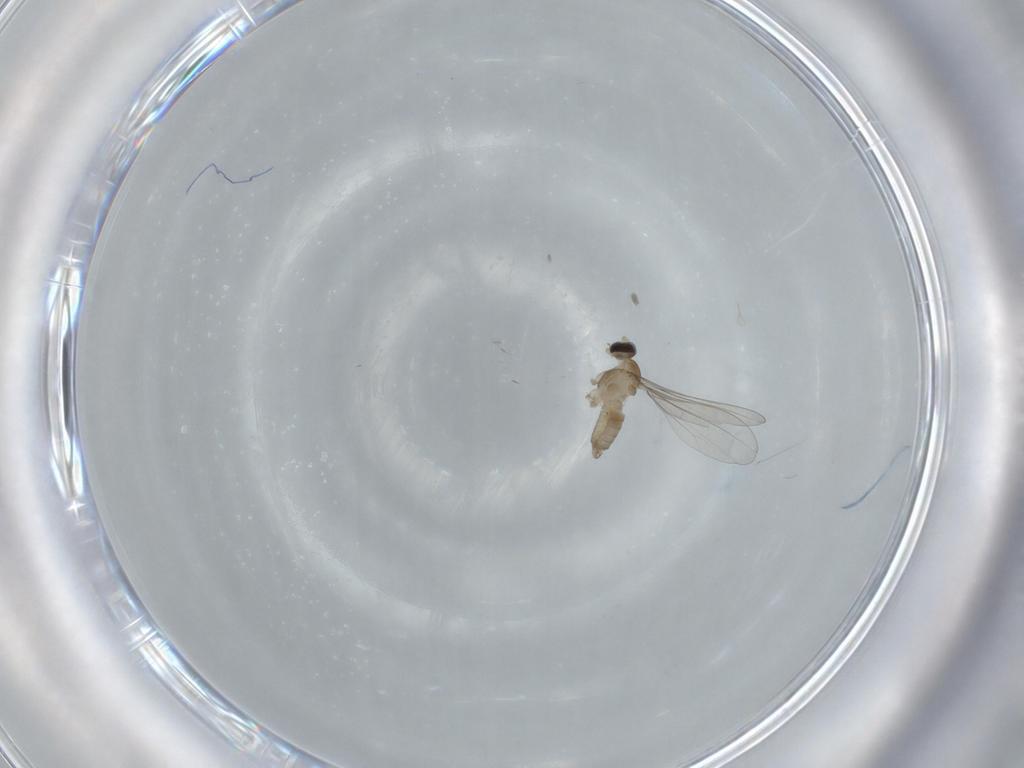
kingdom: Animalia
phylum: Arthropoda
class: Insecta
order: Diptera
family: Cecidomyiidae
